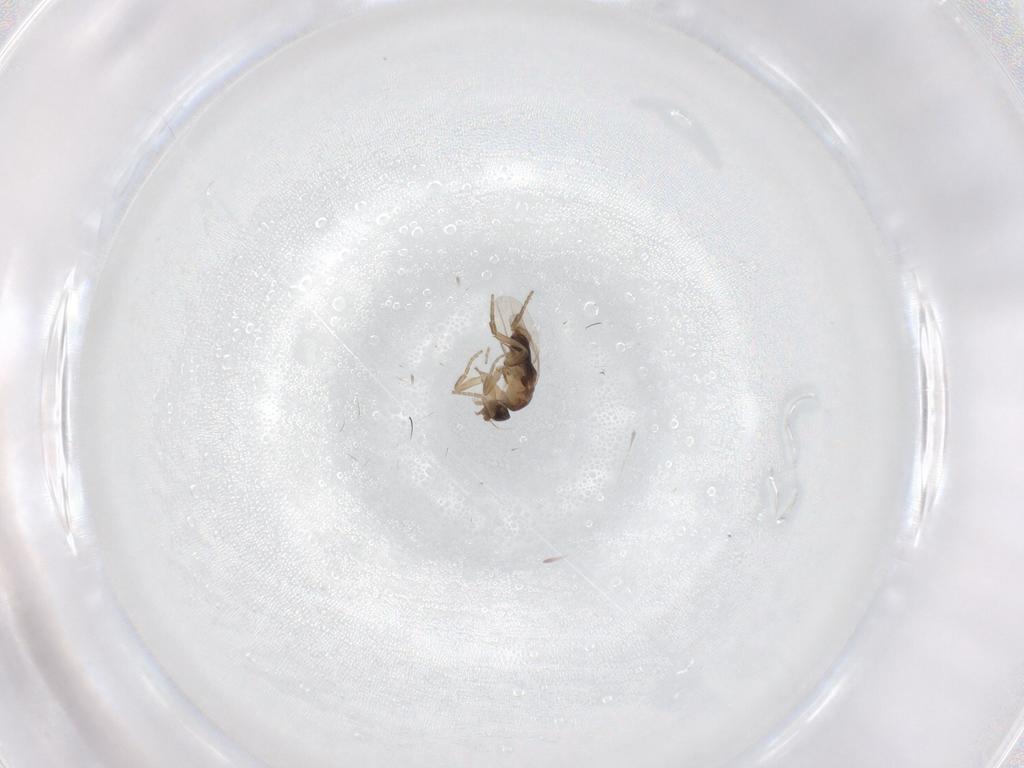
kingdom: Animalia
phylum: Arthropoda
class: Insecta
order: Diptera
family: Phoridae
